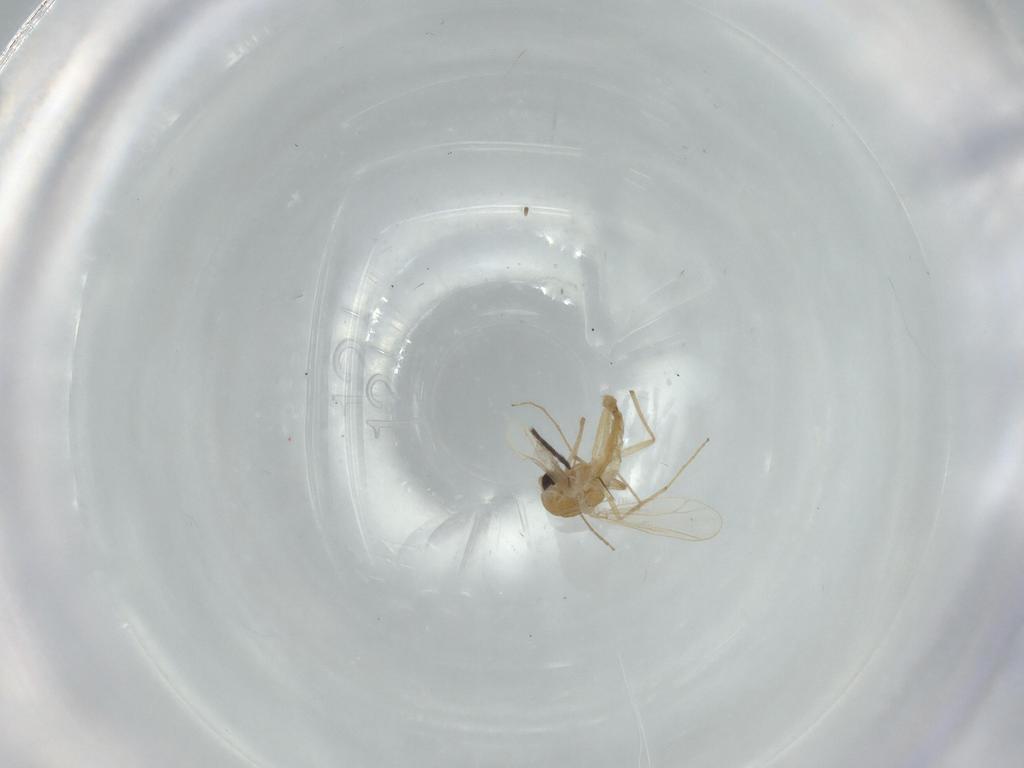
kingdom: Animalia
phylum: Arthropoda
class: Insecta
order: Diptera
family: Chironomidae
